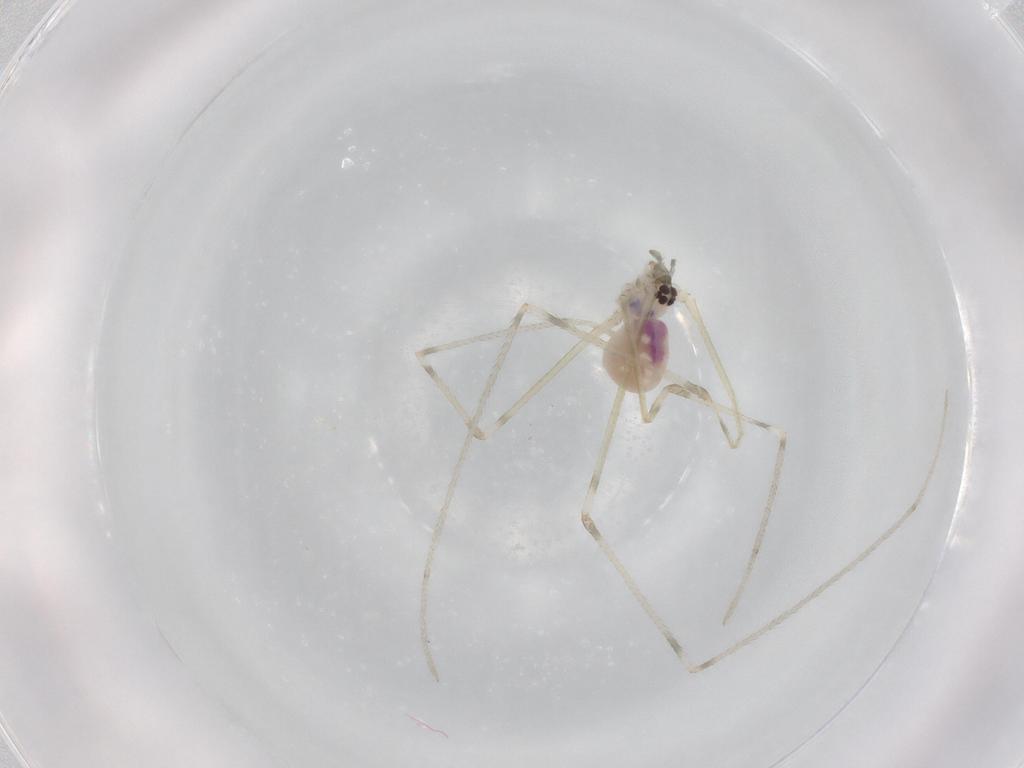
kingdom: Animalia
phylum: Arthropoda
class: Arachnida
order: Araneae
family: Pholcidae
